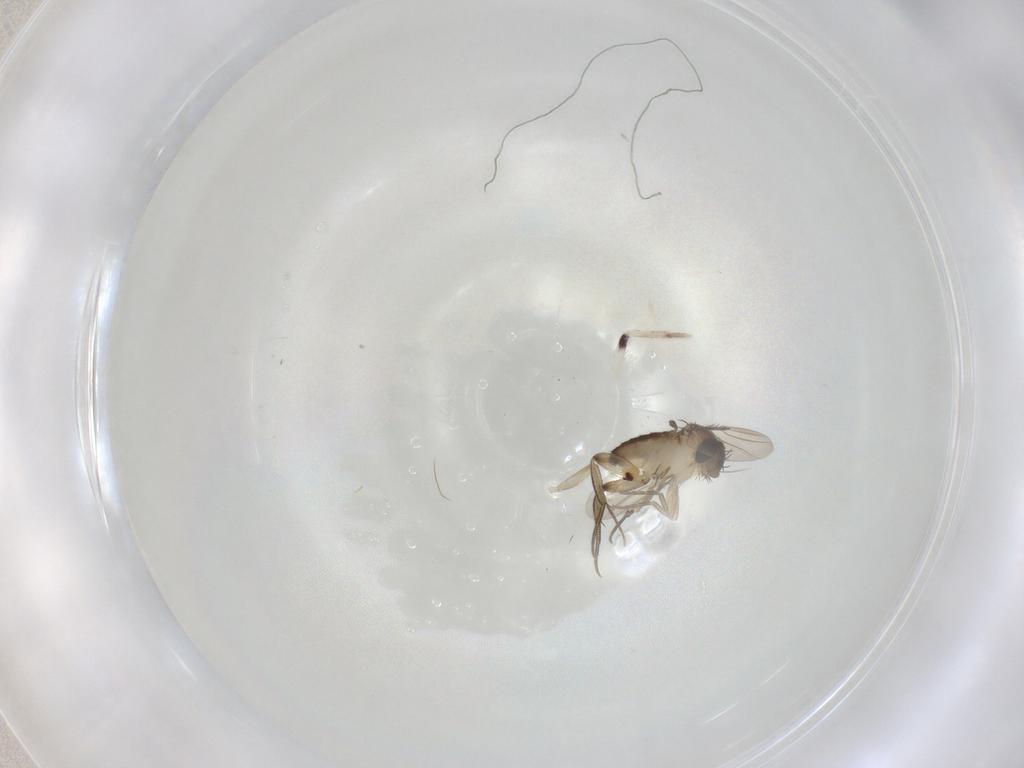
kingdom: Animalia
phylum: Arthropoda
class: Insecta
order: Diptera
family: Phoridae
